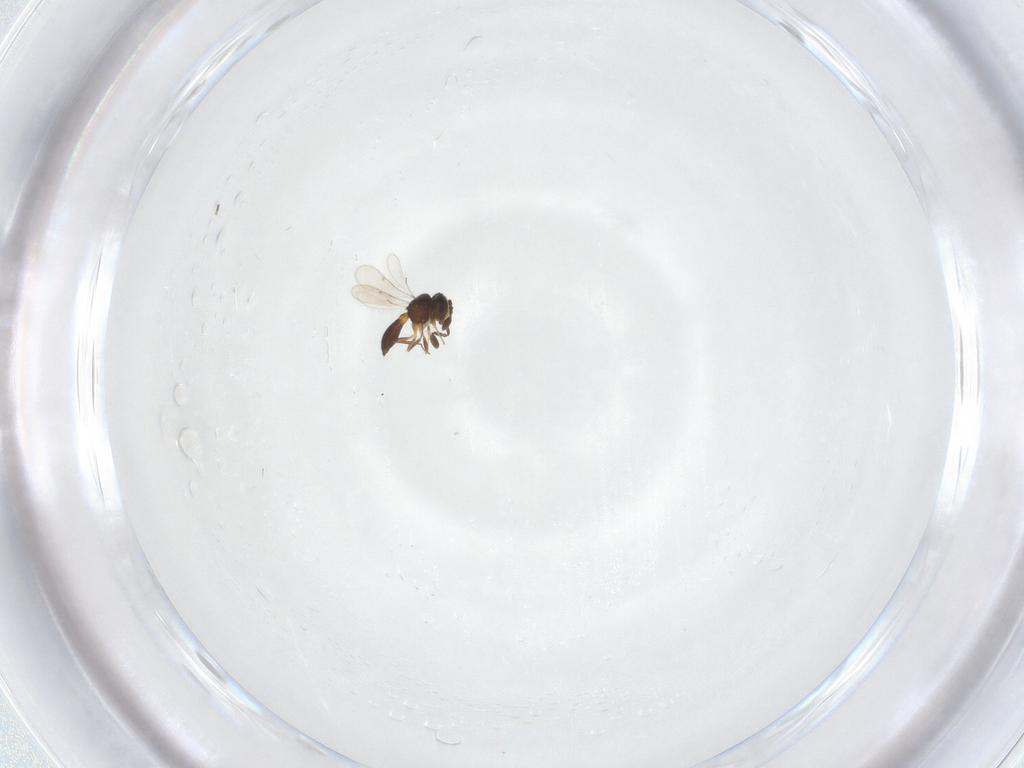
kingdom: Animalia
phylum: Arthropoda
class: Insecta
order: Hymenoptera
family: Scelionidae
